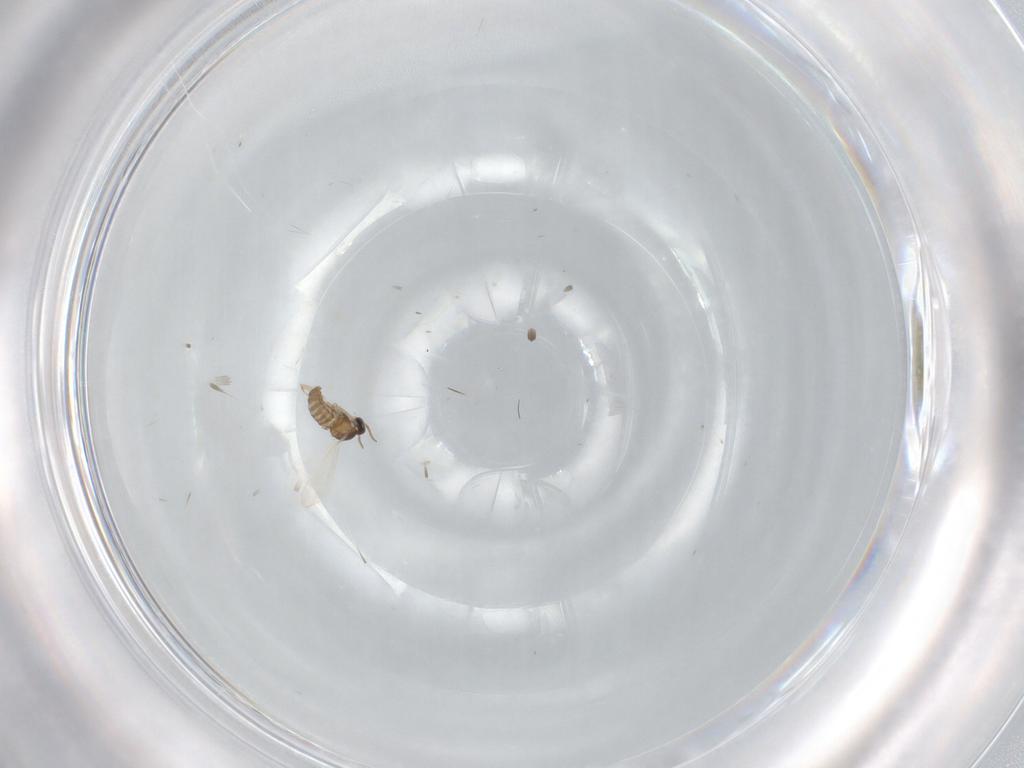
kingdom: Animalia
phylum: Arthropoda
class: Insecta
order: Diptera
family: Cecidomyiidae
